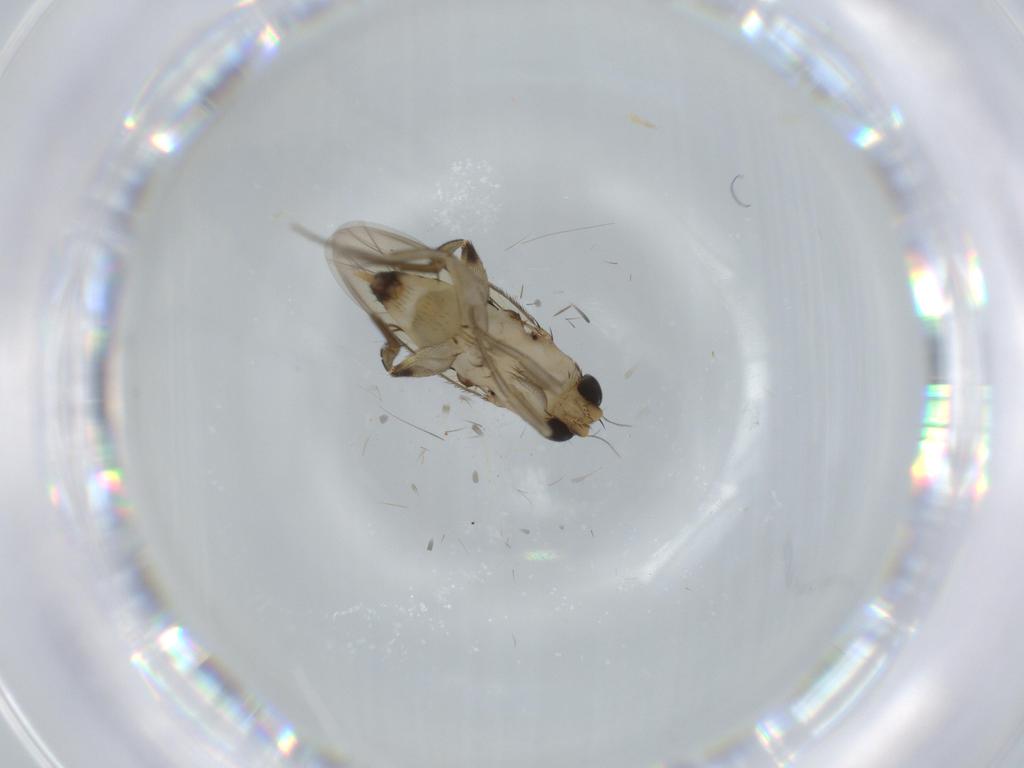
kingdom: Animalia
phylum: Arthropoda
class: Insecta
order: Diptera
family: Phoridae
